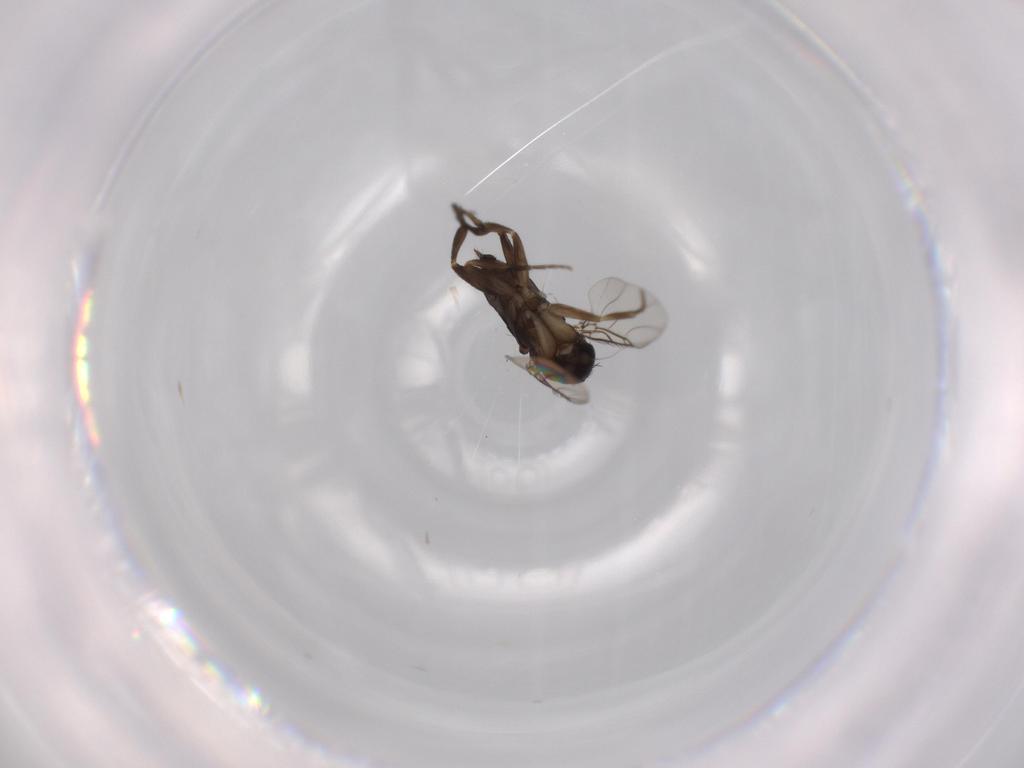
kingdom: Animalia
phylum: Arthropoda
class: Insecta
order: Diptera
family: Phoridae
